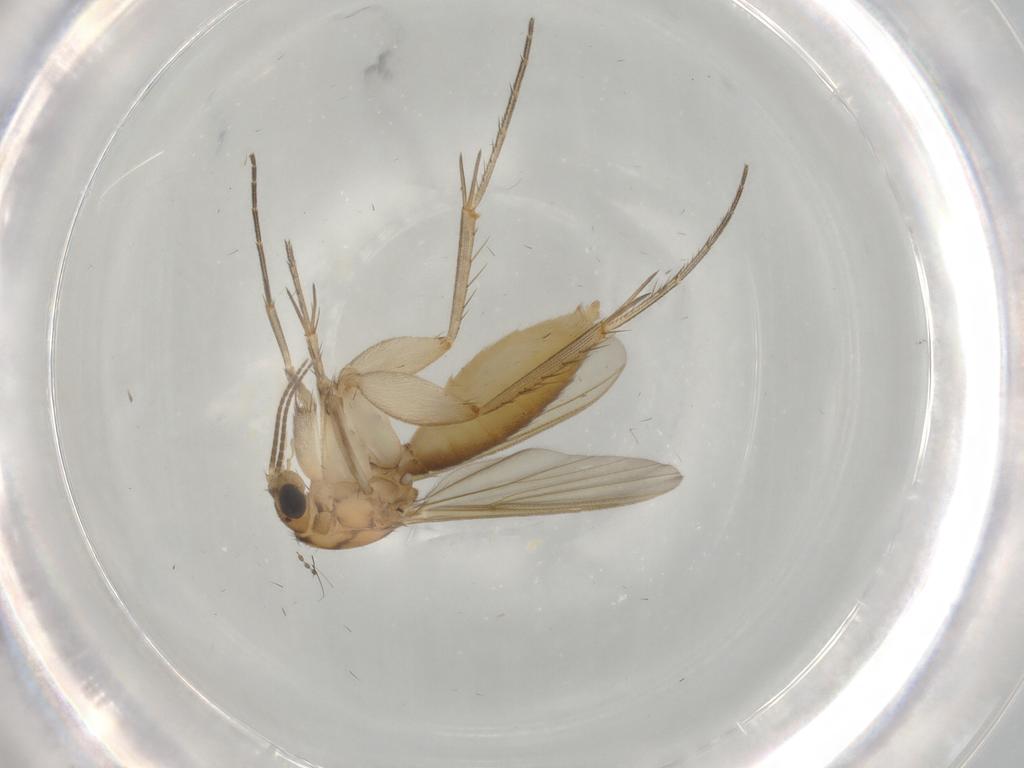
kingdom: Animalia
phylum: Arthropoda
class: Insecta
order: Diptera
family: Mycetophilidae
